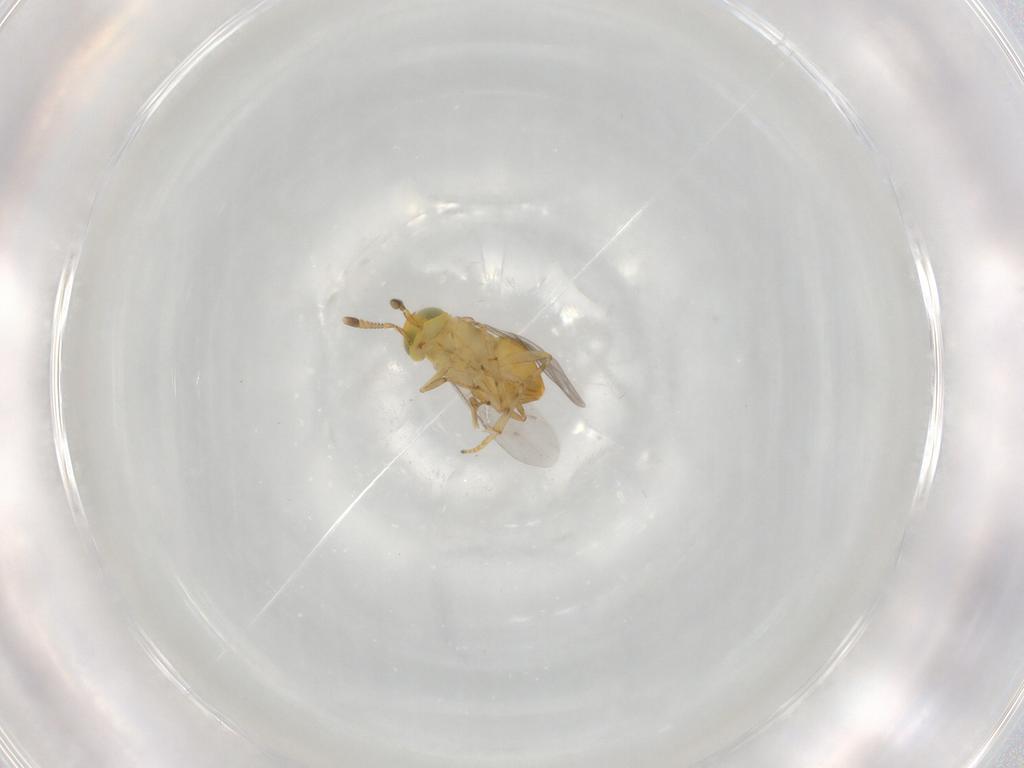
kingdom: Animalia
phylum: Arthropoda
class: Insecta
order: Hymenoptera
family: Encyrtidae
